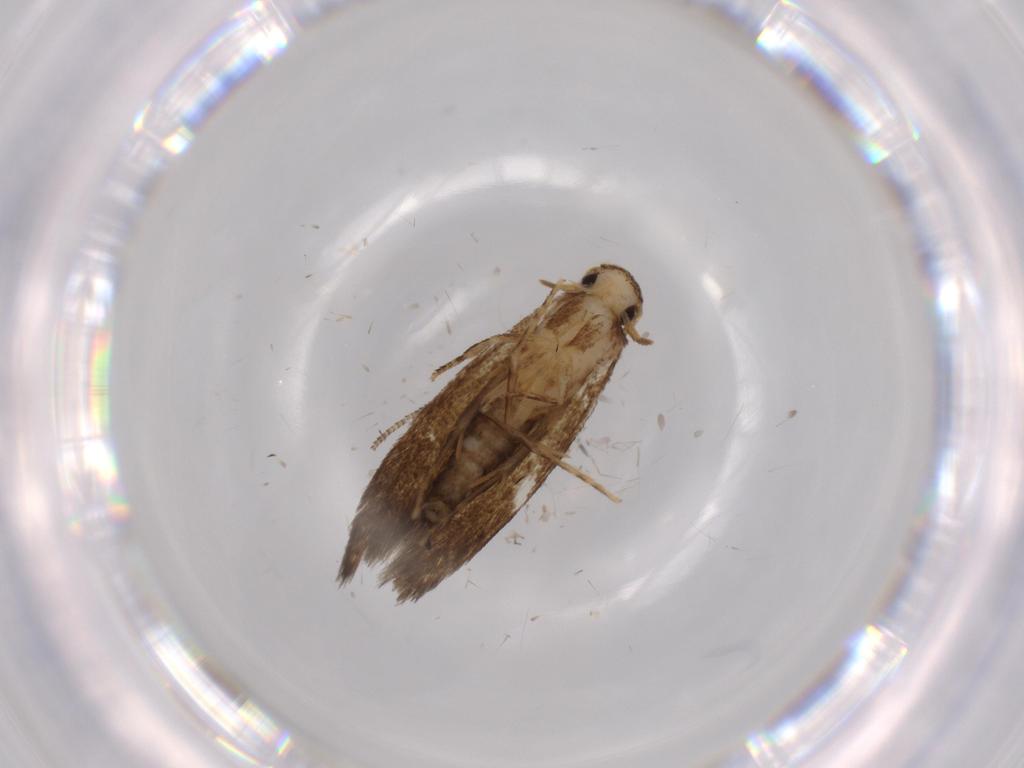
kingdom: Animalia
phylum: Arthropoda
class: Insecta
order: Lepidoptera
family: Tineidae
